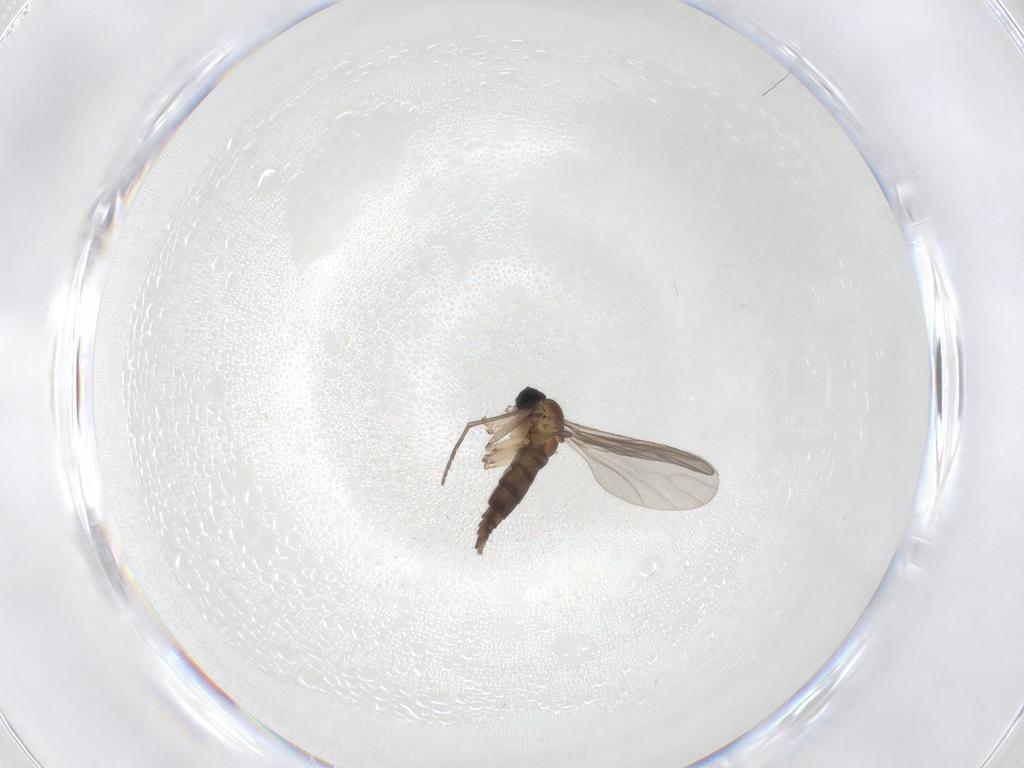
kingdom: Animalia
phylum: Arthropoda
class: Insecta
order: Diptera
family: Sciaridae
